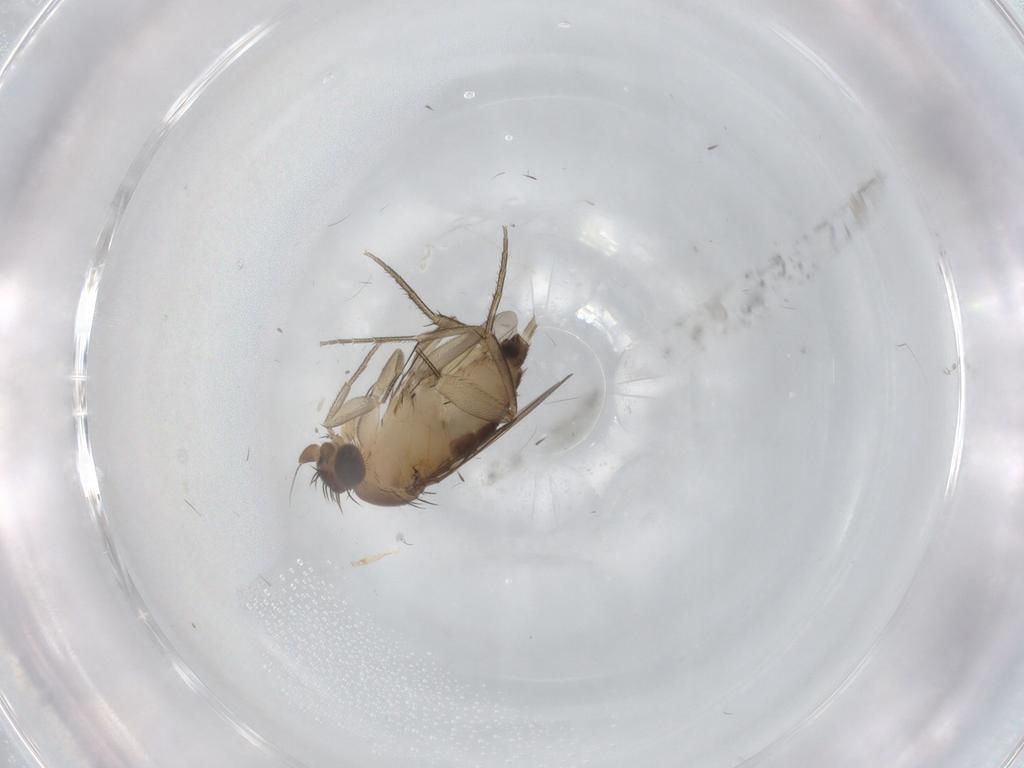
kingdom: Animalia
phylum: Arthropoda
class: Insecta
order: Diptera
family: Phoridae
